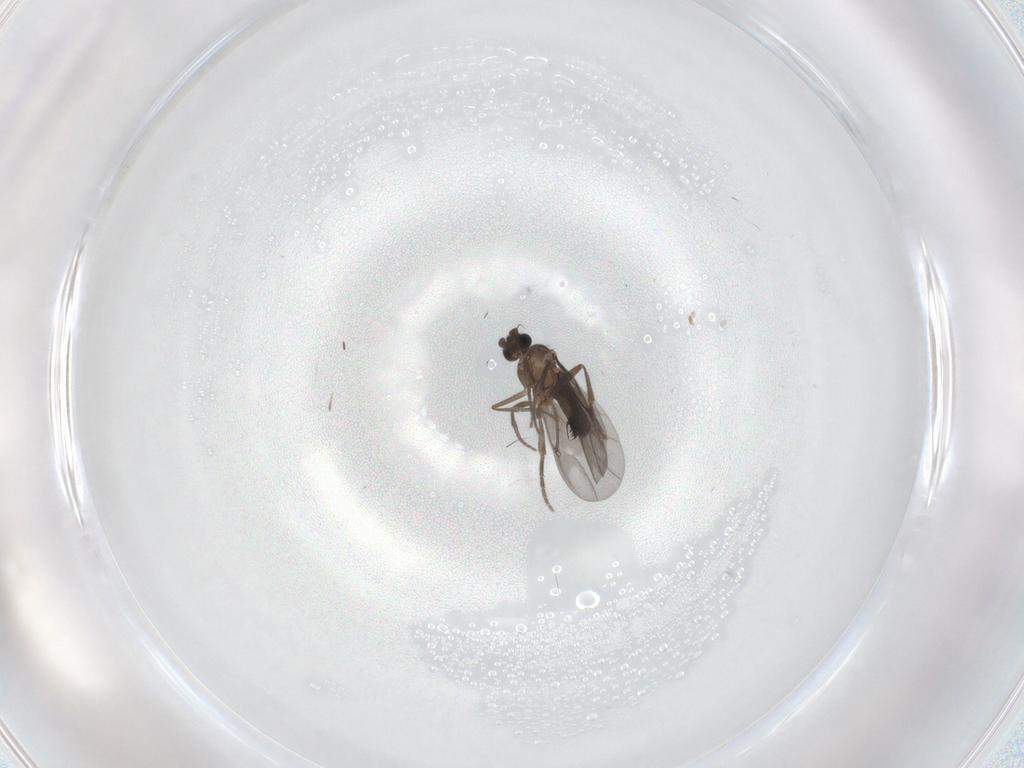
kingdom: Animalia
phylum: Arthropoda
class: Insecta
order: Diptera
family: Phoridae
